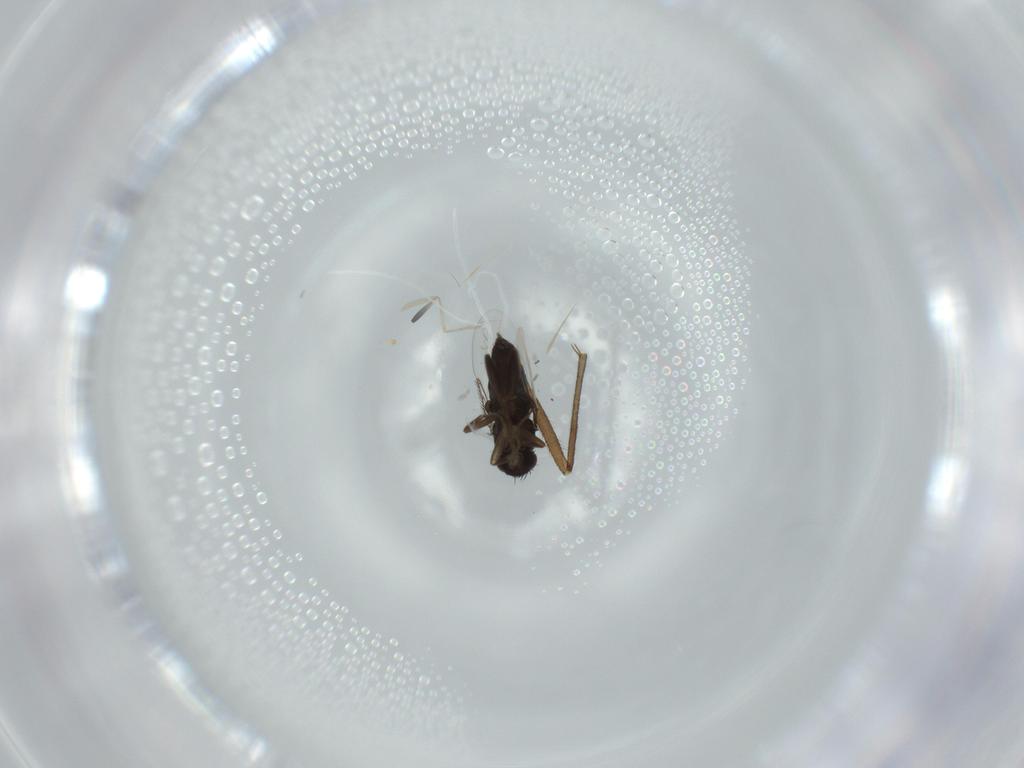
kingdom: Animalia
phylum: Arthropoda
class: Insecta
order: Diptera
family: Phoridae
